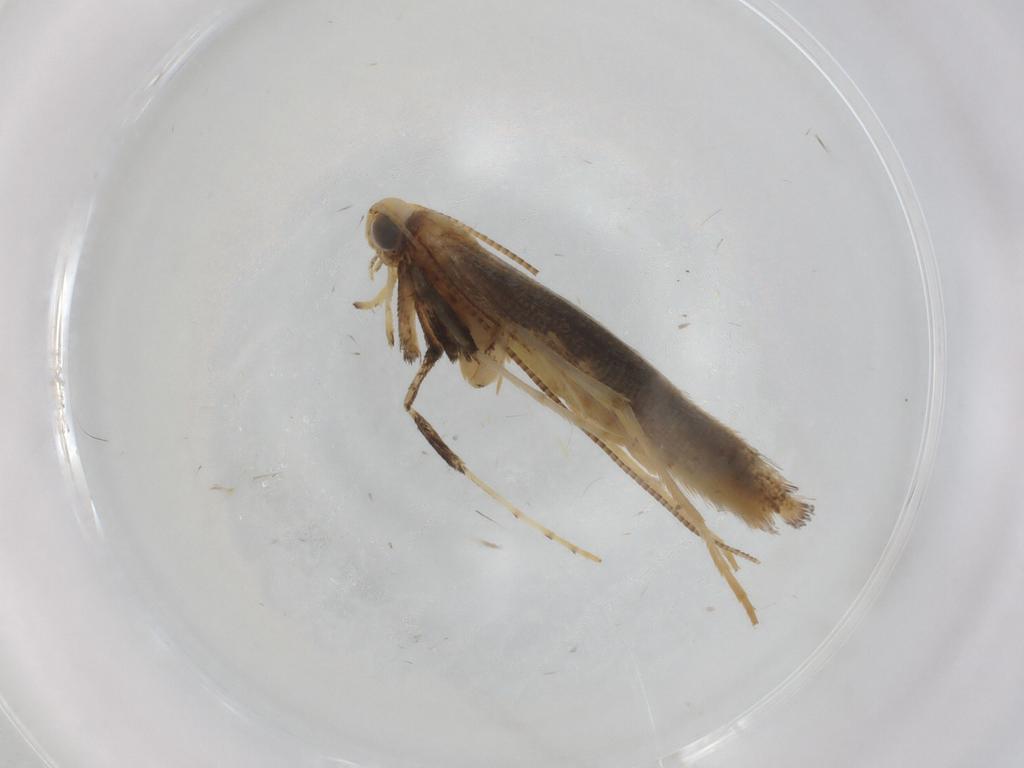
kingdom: Animalia
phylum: Arthropoda
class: Insecta
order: Lepidoptera
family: Gracillariidae
